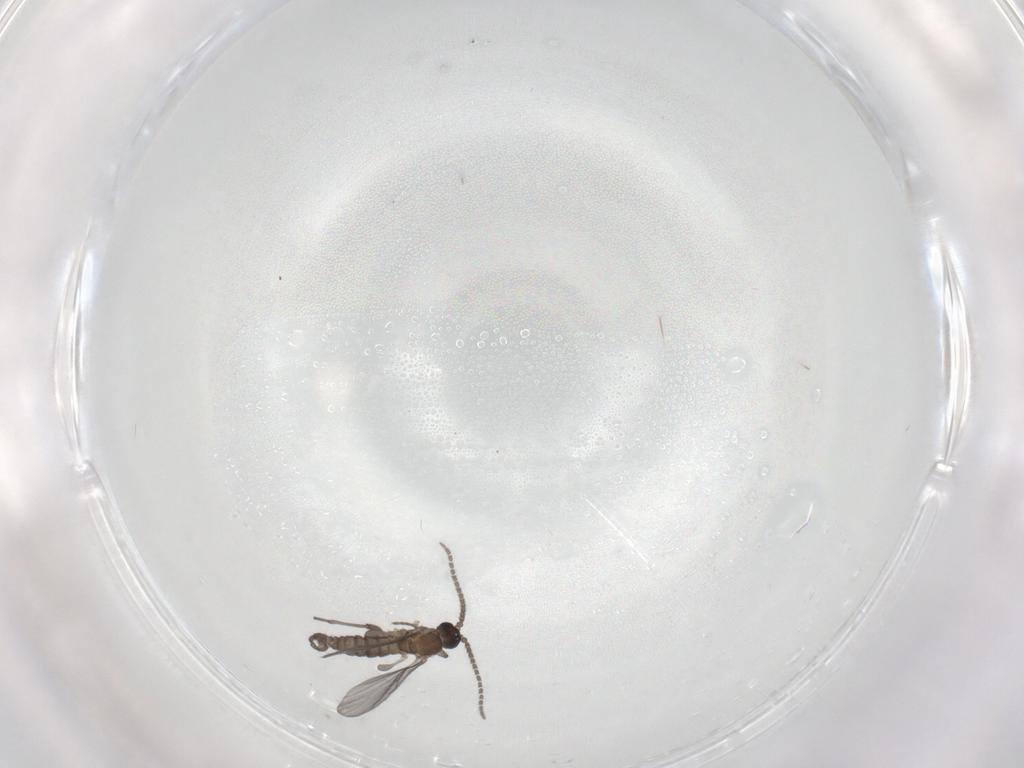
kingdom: Animalia
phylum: Arthropoda
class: Insecta
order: Diptera
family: Sciaridae
